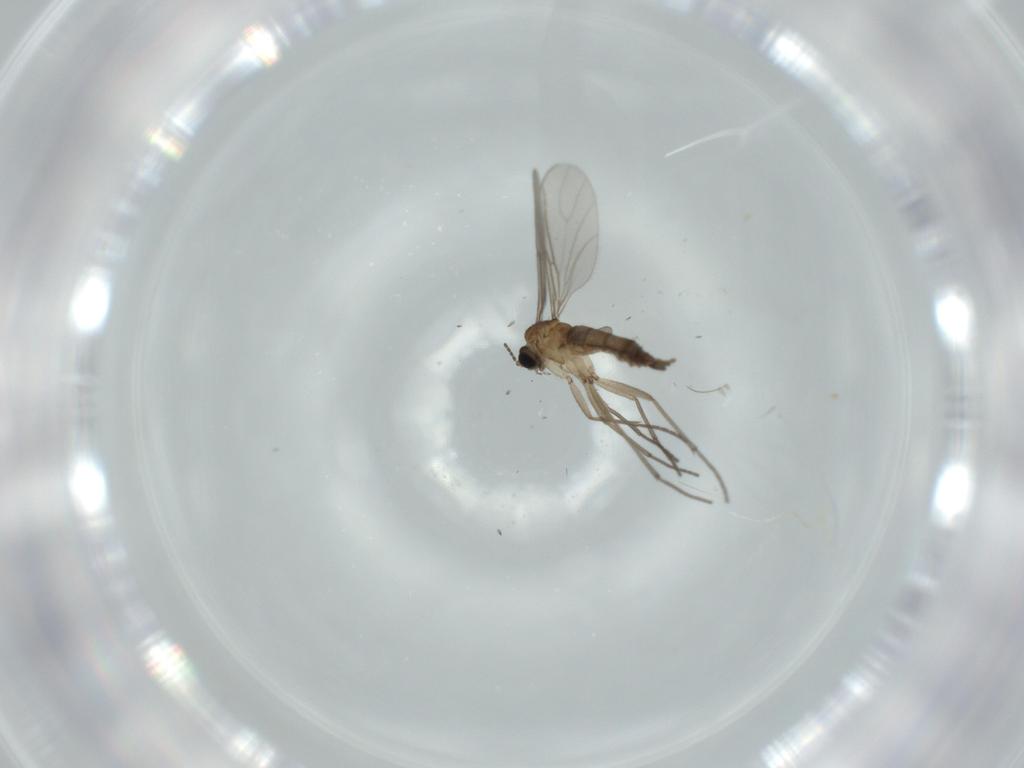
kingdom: Animalia
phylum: Arthropoda
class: Insecta
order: Diptera
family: Sciaridae
